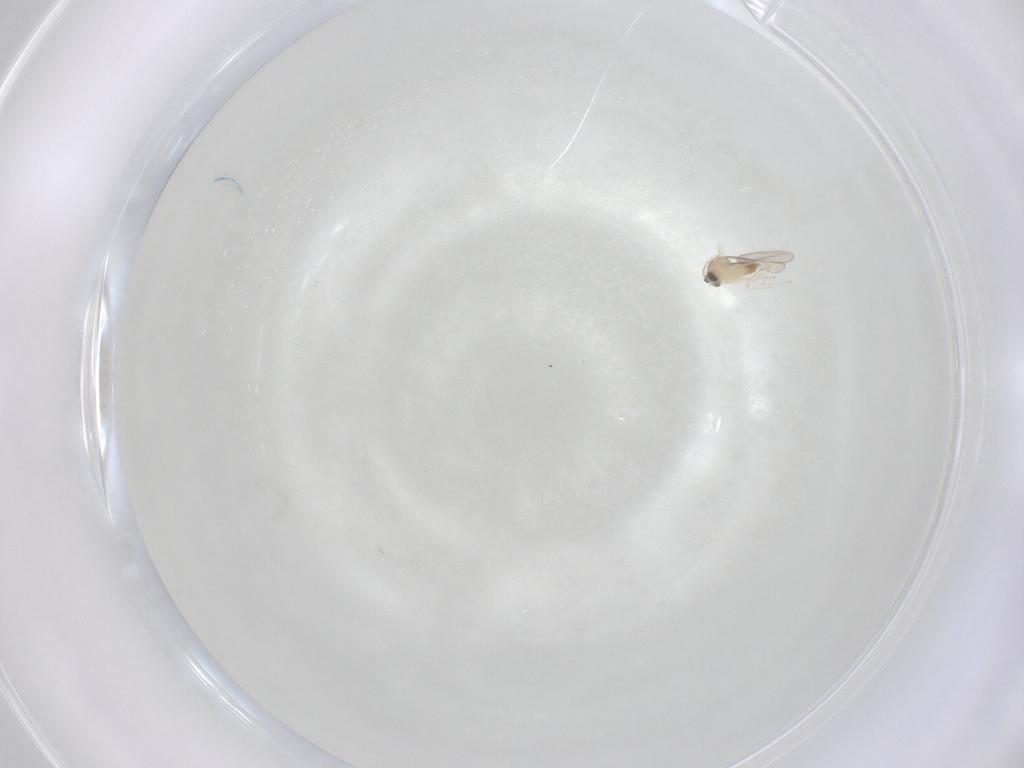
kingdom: Animalia
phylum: Arthropoda
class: Insecta
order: Diptera
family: Cecidomyiidae
